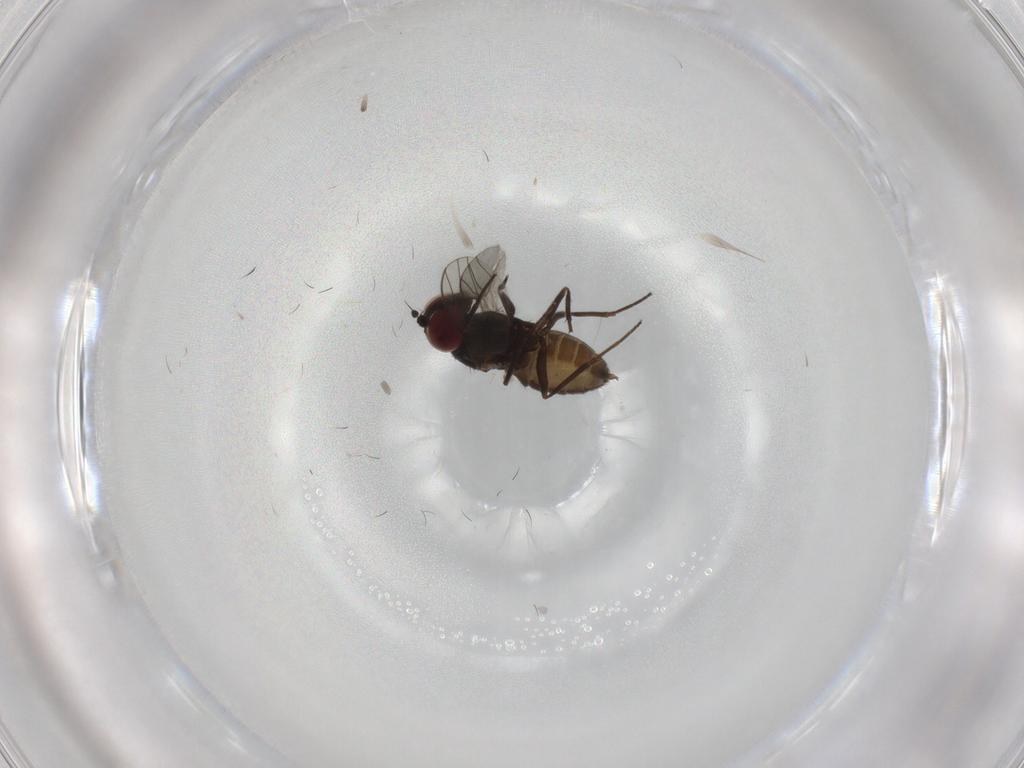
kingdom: Animalia
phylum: Arthropoda
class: Insecta
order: Diptera
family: Dolichopodidae
